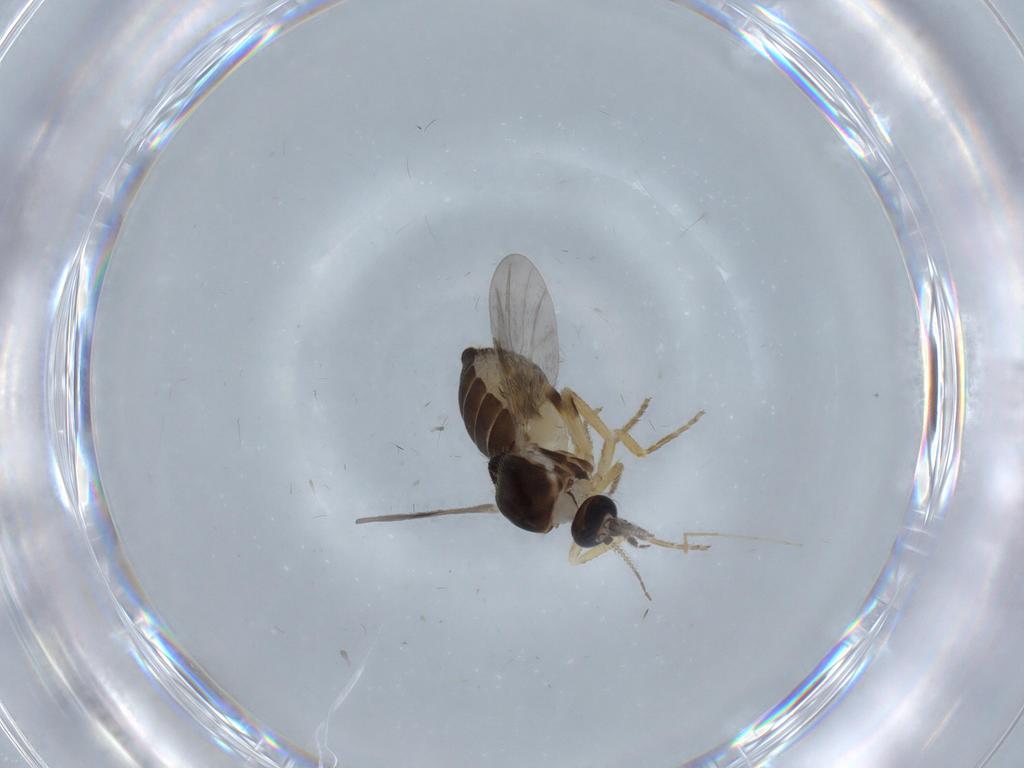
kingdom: Animalia
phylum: Arthropoda
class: Insecta
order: Diptera
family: Ceratopogonidae
